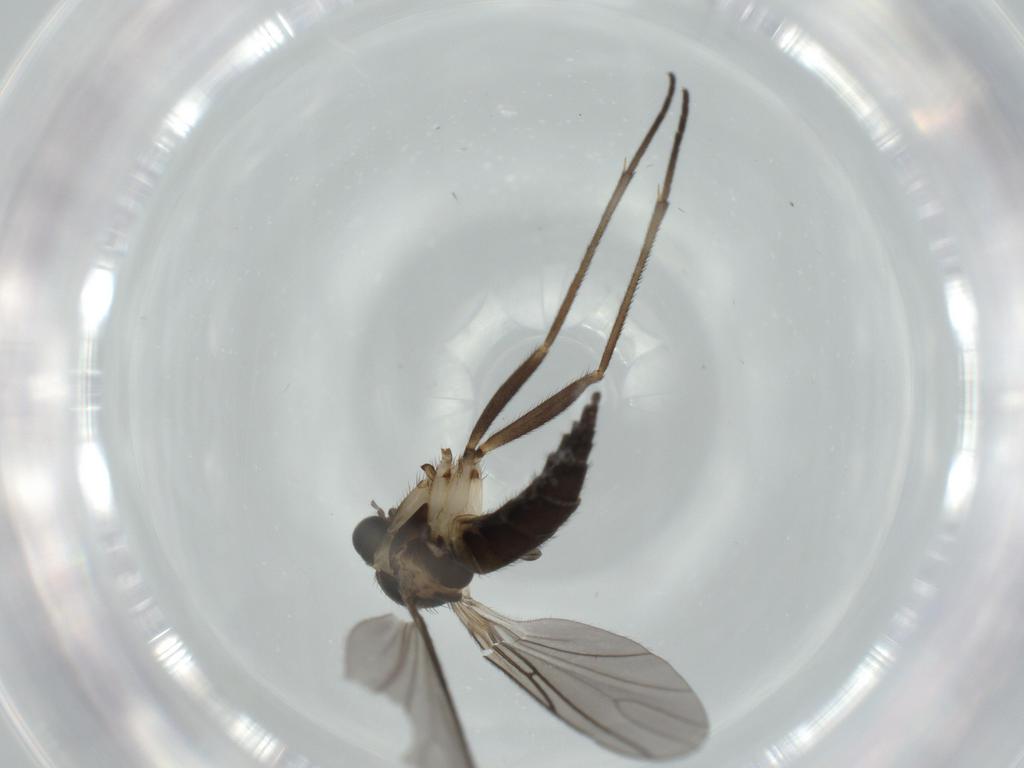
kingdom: Animalia
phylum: Arthropoda
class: Insecta
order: Diptera
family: Sciaridae
